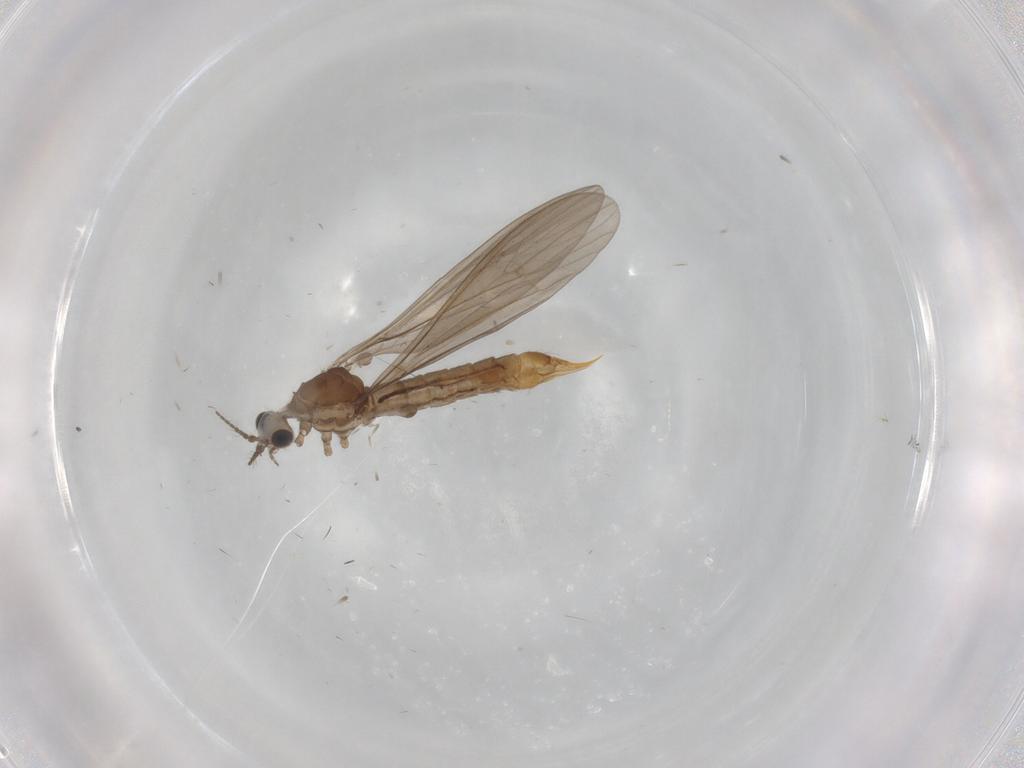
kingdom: Animalia
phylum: Arthropoda
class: Insecta
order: Diptera
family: Limoniidae
